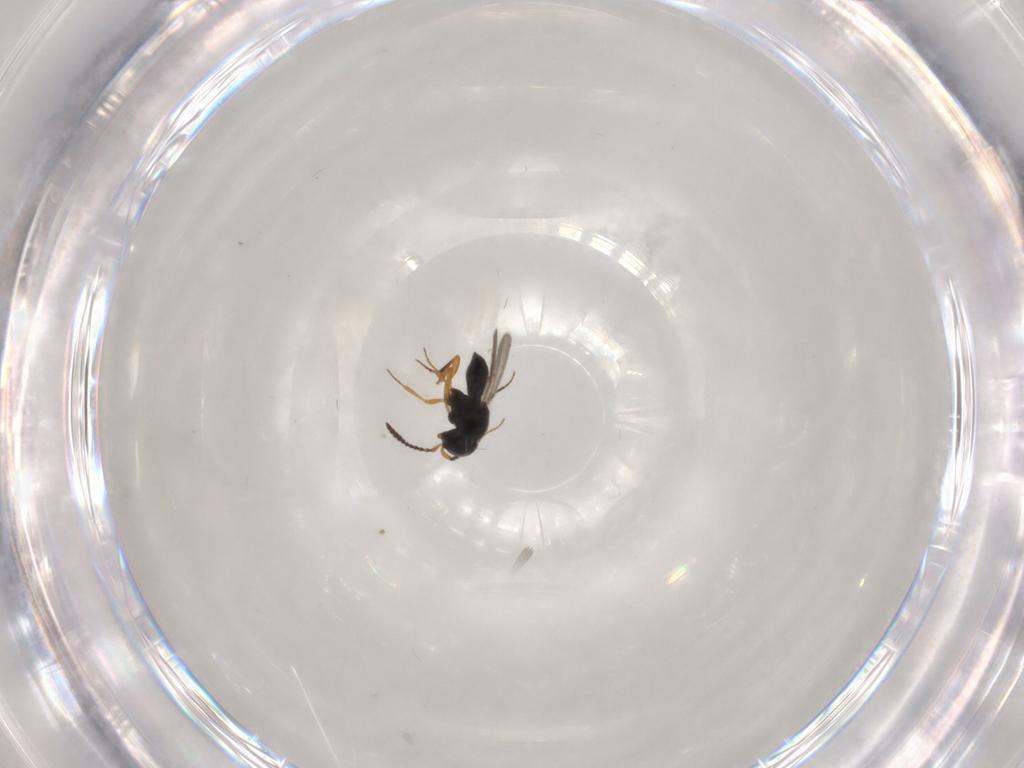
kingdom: Animalia
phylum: Arthropoda
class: Insecta
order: Hymenoptera
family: Scelionidae
